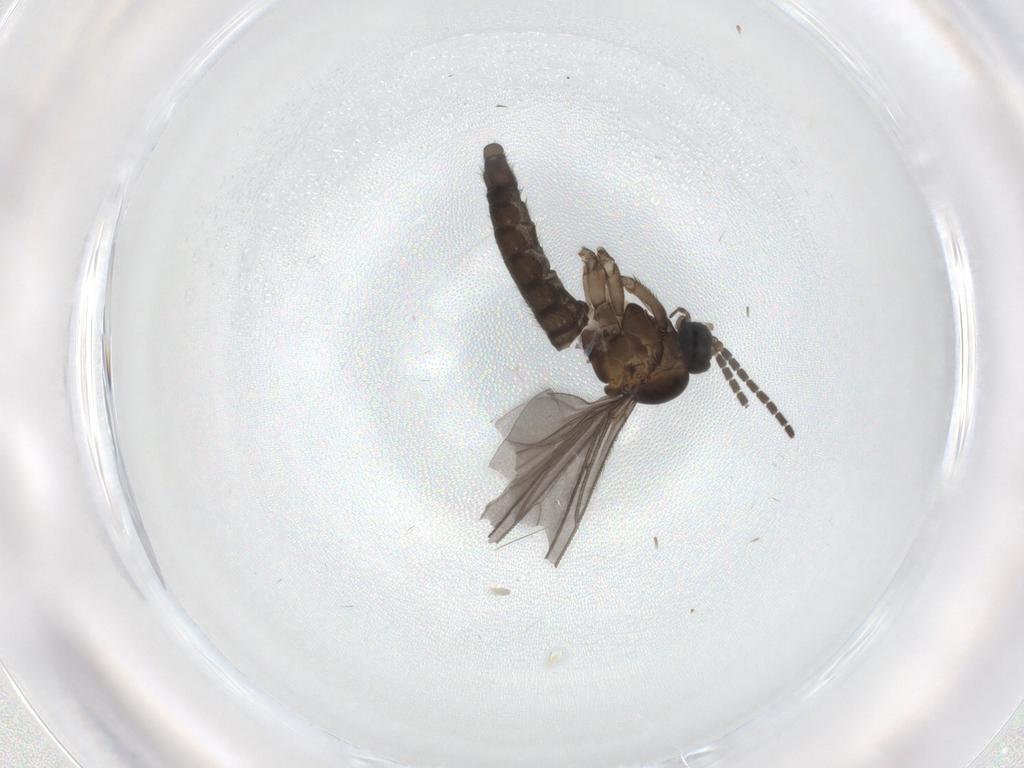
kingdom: Animalia
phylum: Arthropoda
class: Insecta
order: Diptera
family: Sciaridae
